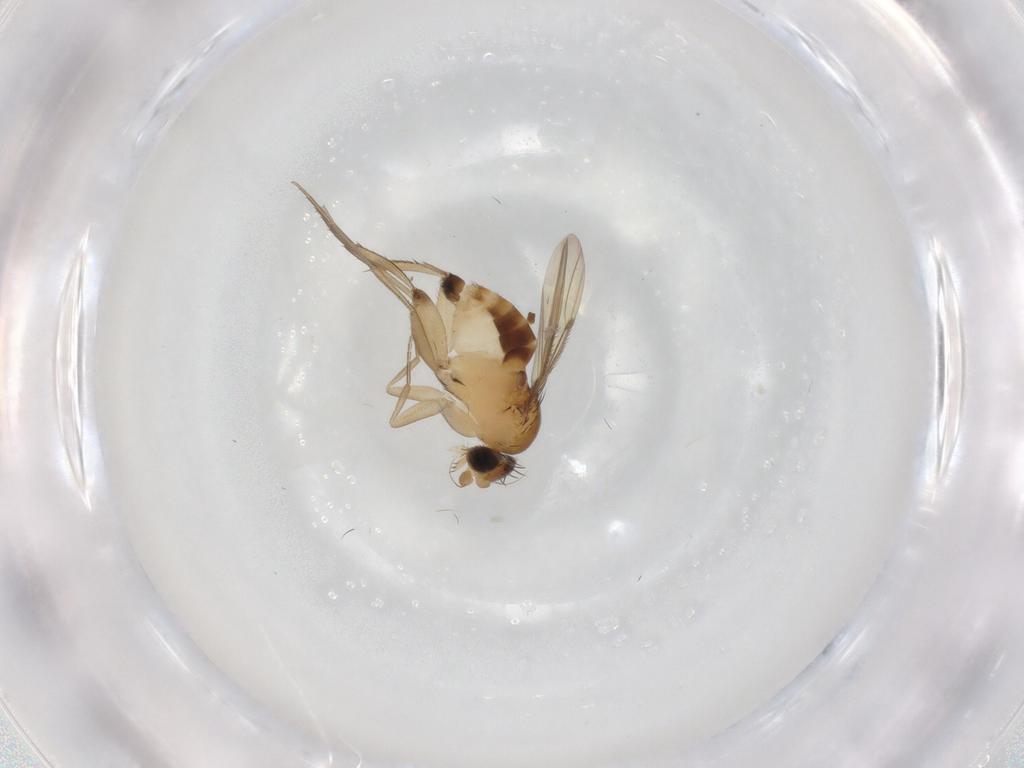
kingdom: Animalia
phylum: Arthropoda
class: Insecta
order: Diptera
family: Phoridae
